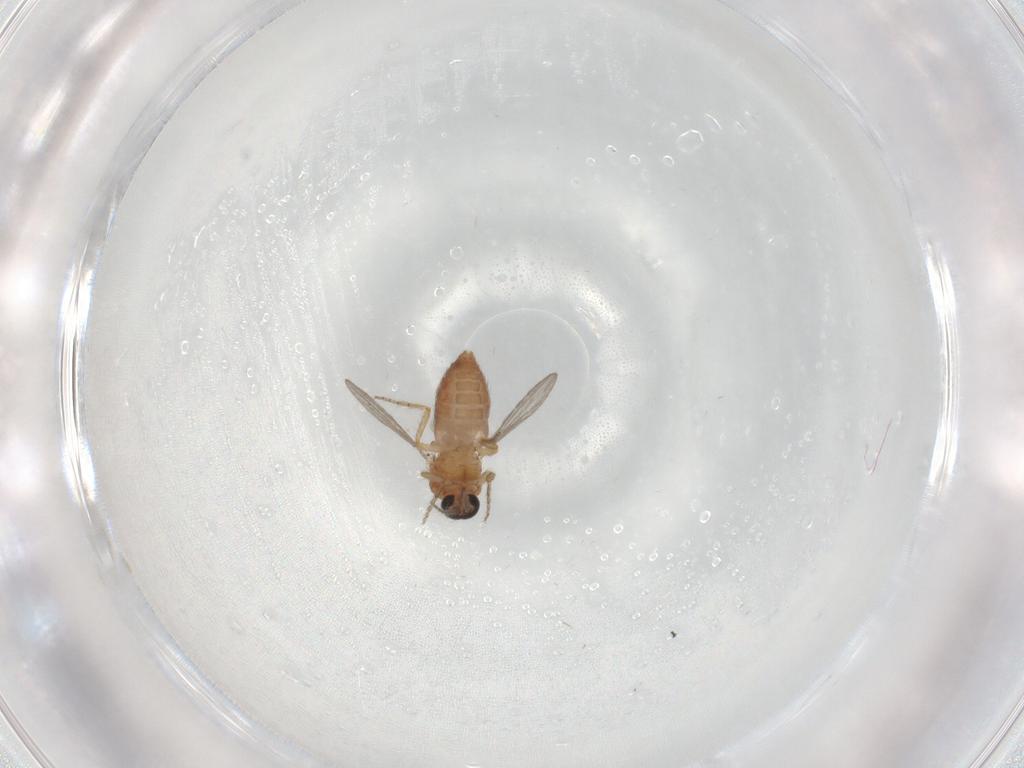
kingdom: Animalia
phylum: Arthropoda
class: Insecta
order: Diptera
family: Ceratopogonidae
